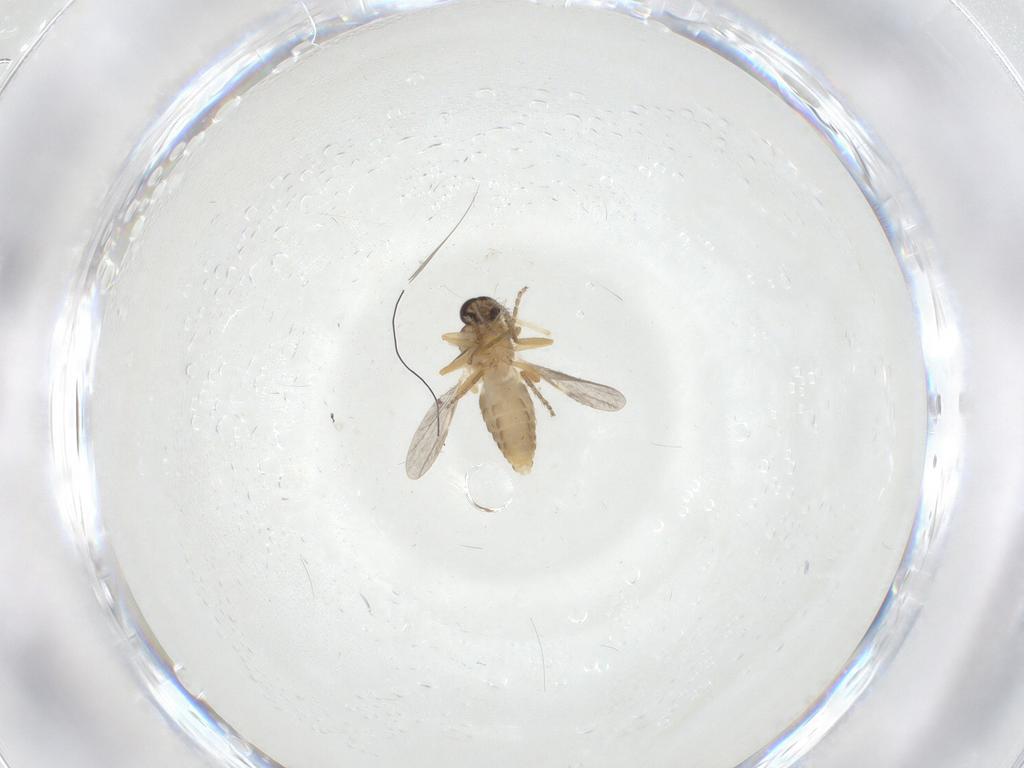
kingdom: Animalia
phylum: Arthropoda
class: Insecta
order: Diptera
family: Ceratopogonidae
